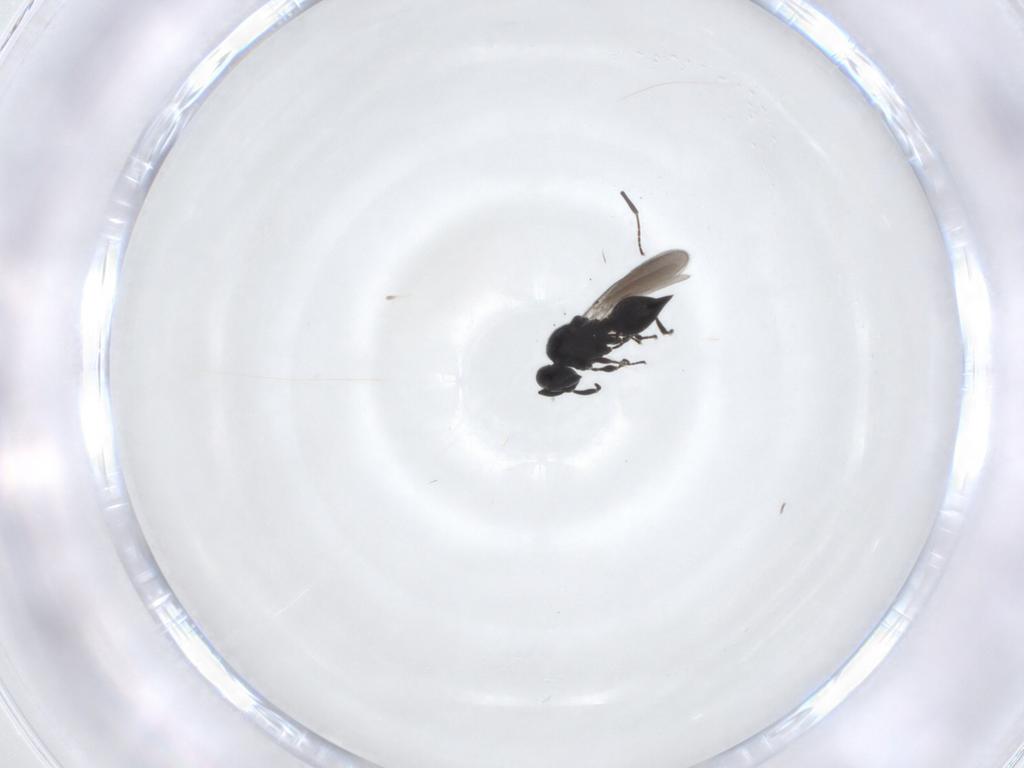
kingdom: Animalia
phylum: Arthropoda
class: Insecta
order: Hymenoptera
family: Platygastridae
